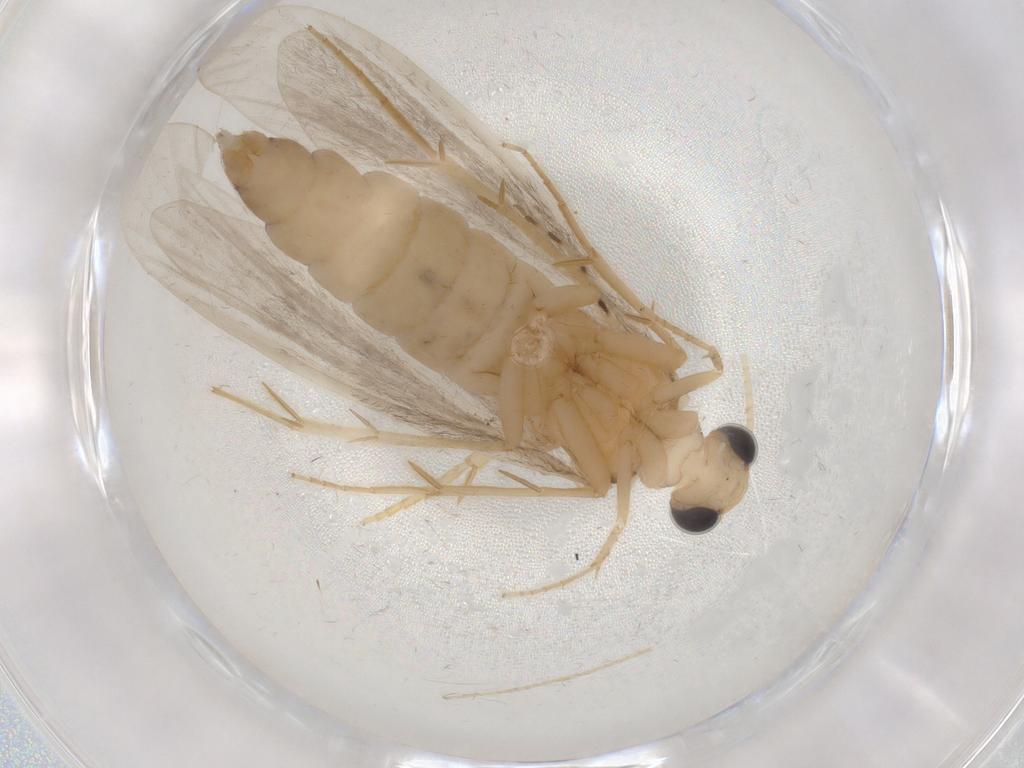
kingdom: Animalia
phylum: Arthropoda
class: Insecta
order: Trichoptera
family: Ecnomidae
